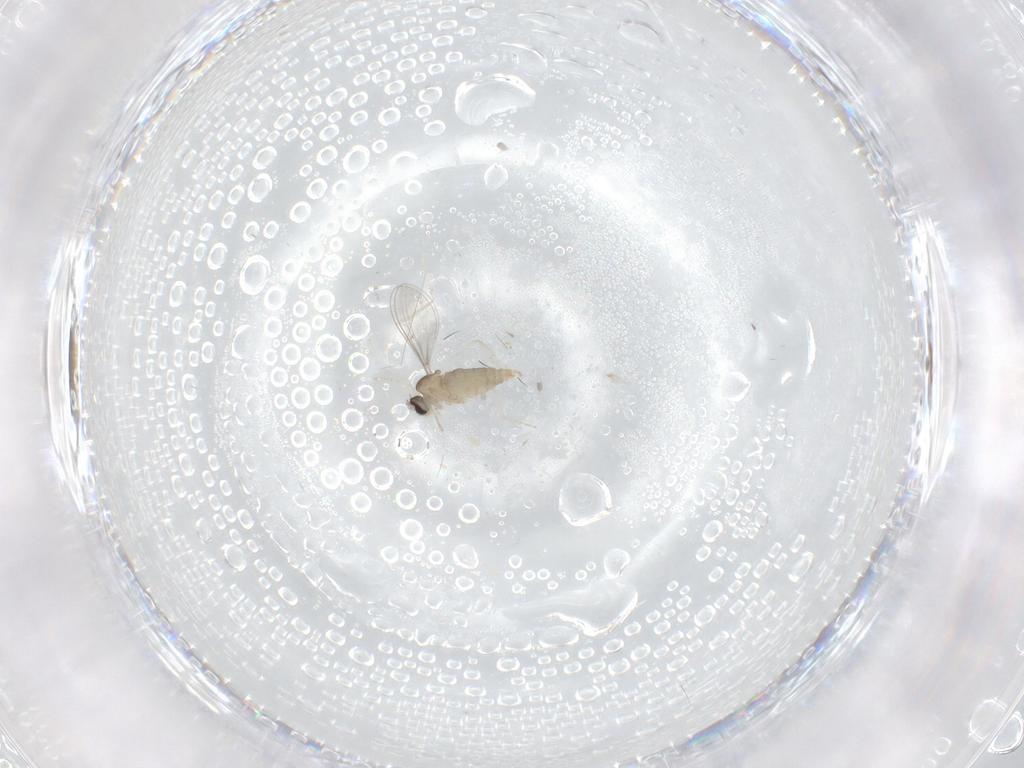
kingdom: Animalia
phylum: Arthropoda
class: Insecta
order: Diptera
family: Cecidomyiidae
